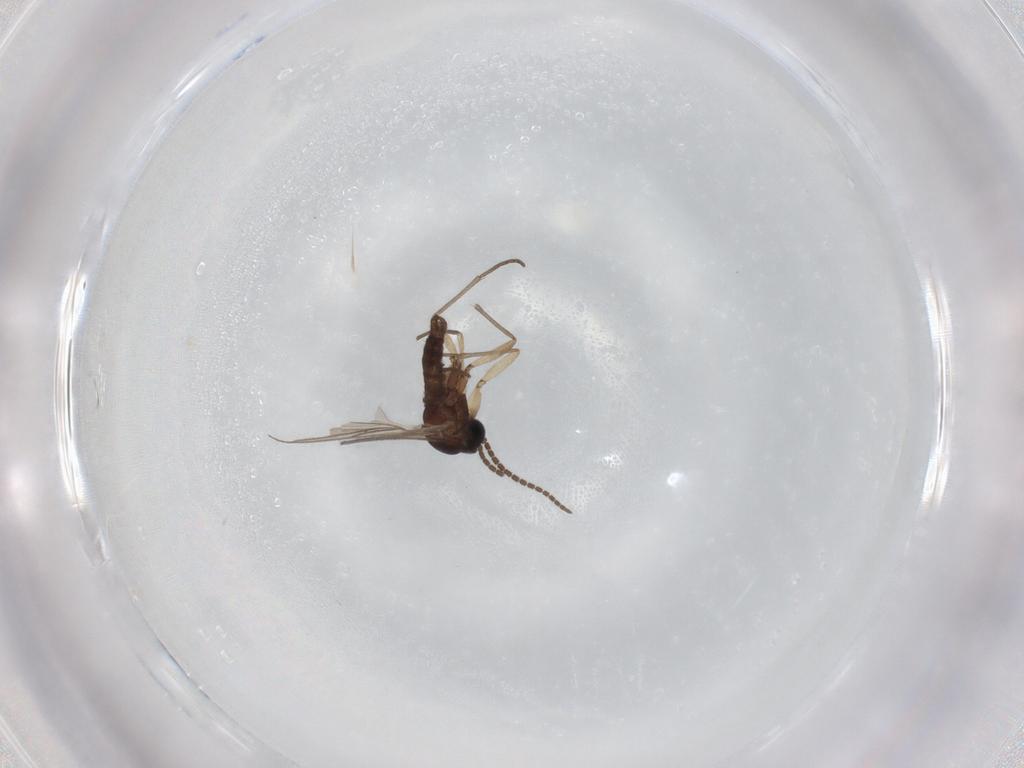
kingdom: Animalia
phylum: Arthropoda
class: Insecta
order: Diptera
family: Sciaridae
